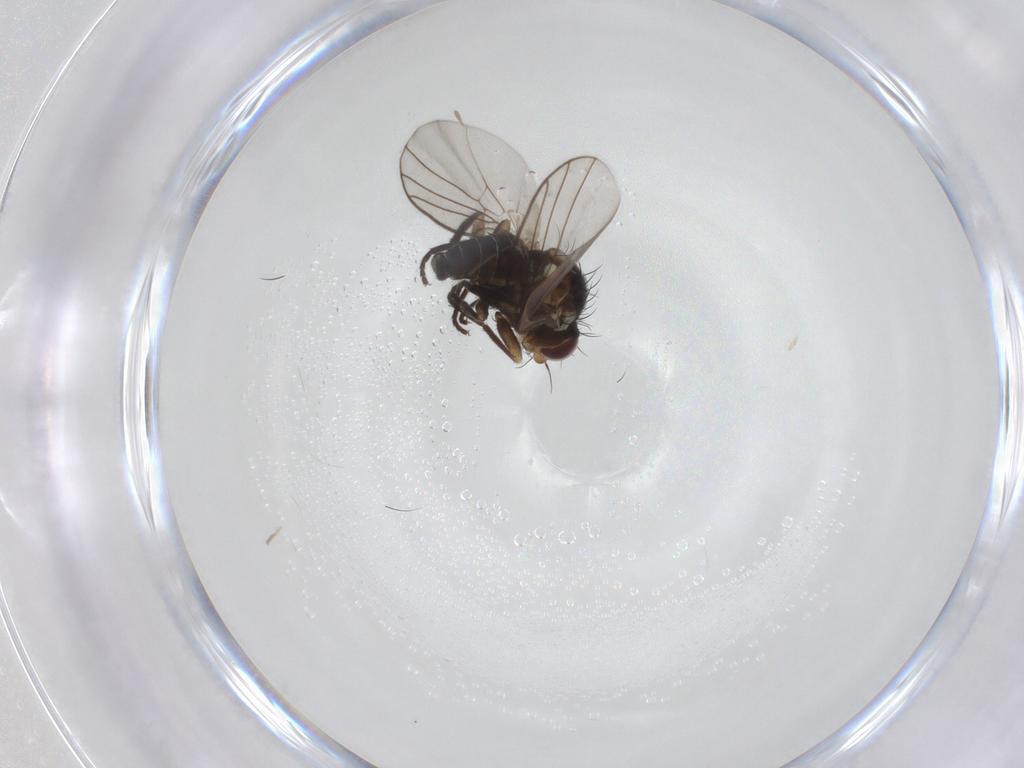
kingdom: Animalia
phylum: Arthropoda
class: Insecta
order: Diptera
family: Agromyzidae
